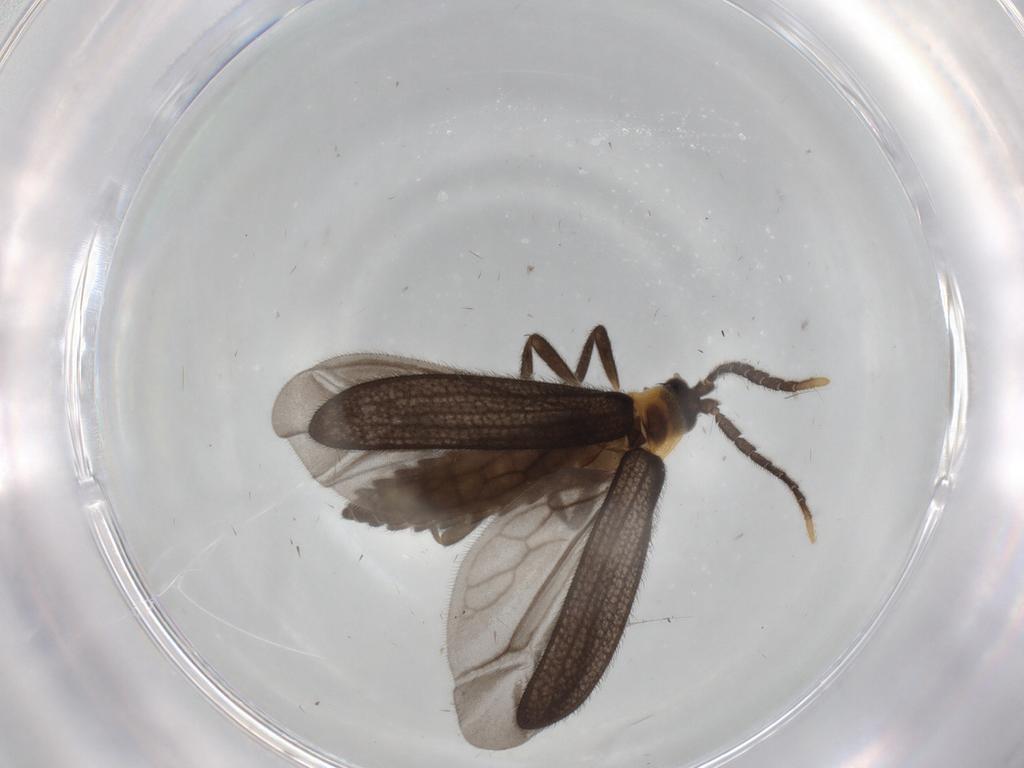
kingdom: Animalia
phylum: Arthropoda
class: Insecta
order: Coleoptera
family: Lycidae
